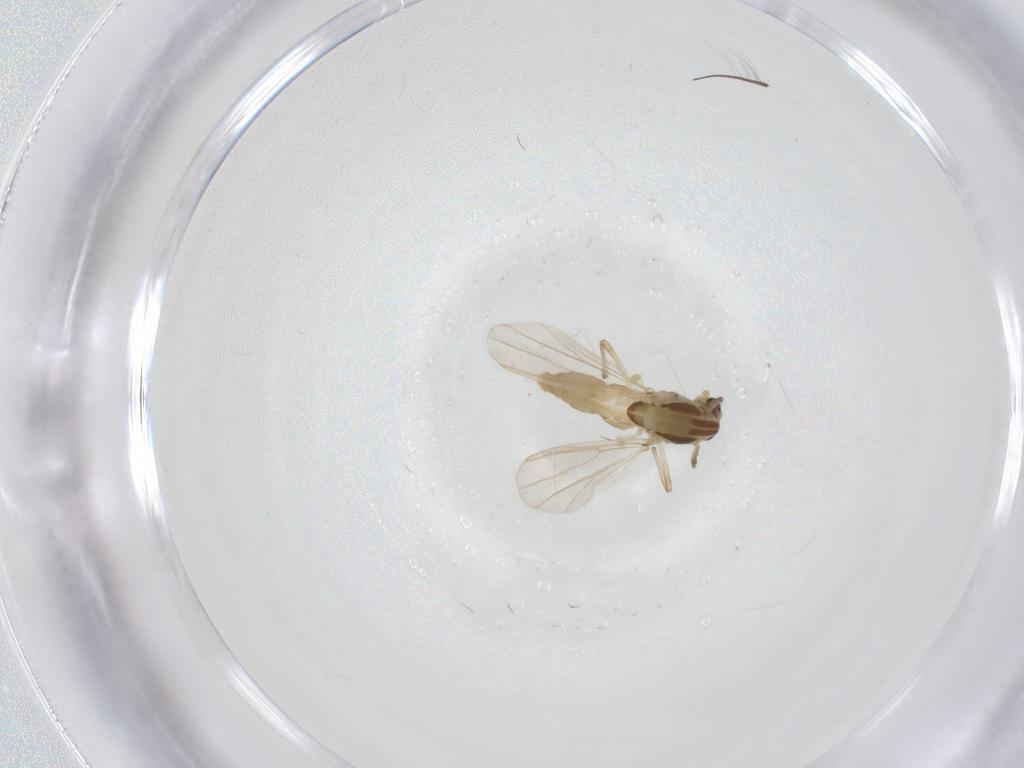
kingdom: Animalia
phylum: Arthropoda
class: Insecta
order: Diptera
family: Chironomidae
